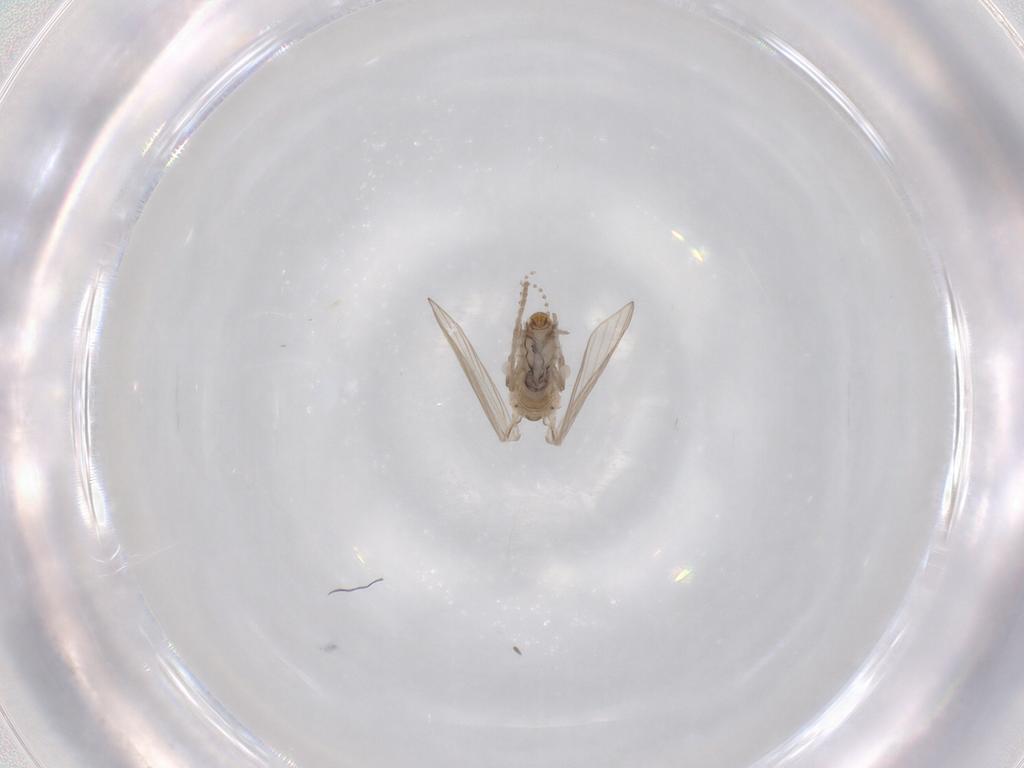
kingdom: Animalia
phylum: Arthropoda
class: Insecta
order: Diptera
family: Psychodidae
